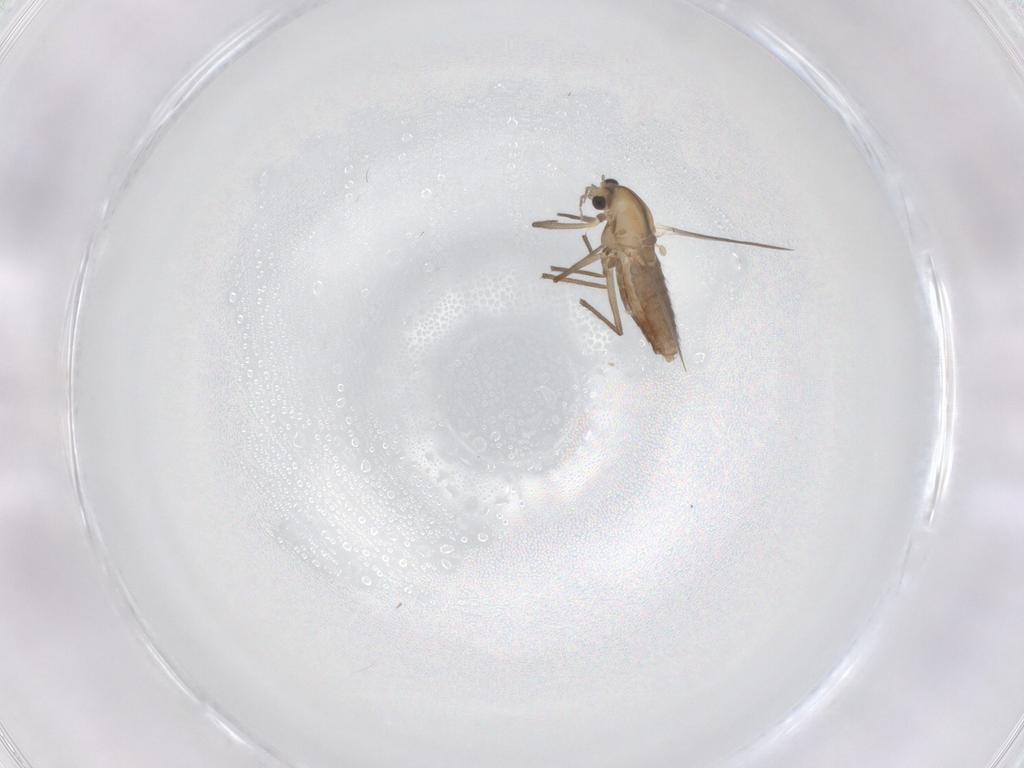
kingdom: Animalia
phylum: Arthropoda
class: Insecta
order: Diptera
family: Chironomidae
